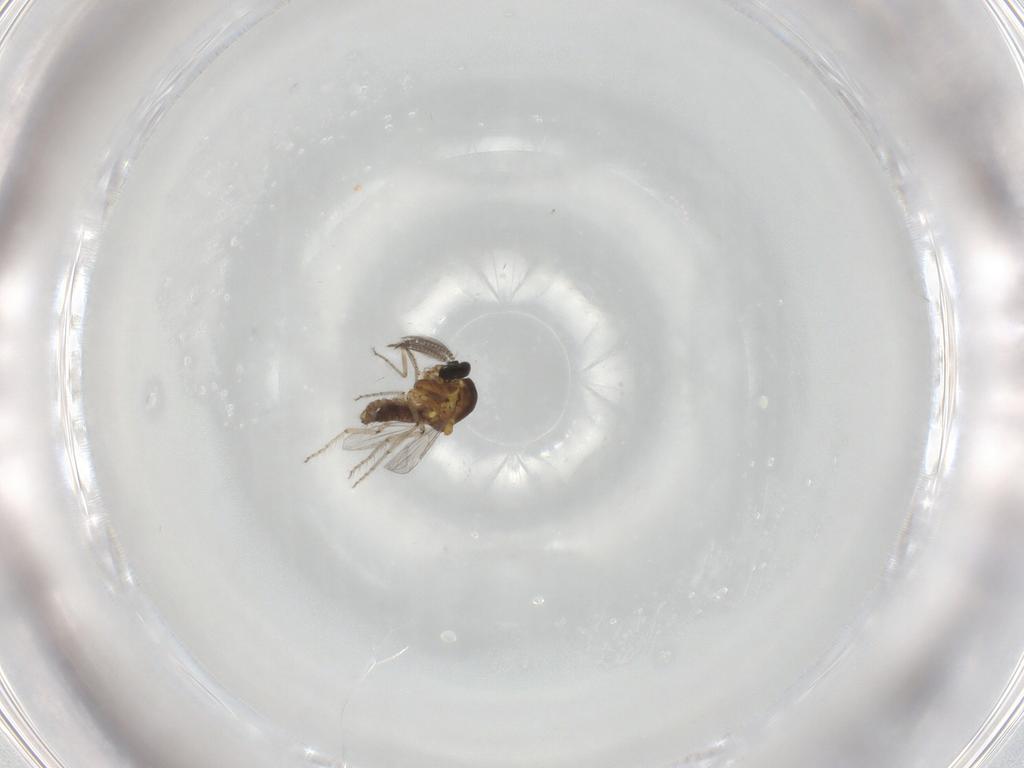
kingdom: Animalia
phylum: Arthropoda
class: Insecta
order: Diptera
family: Ceratopogonidae
